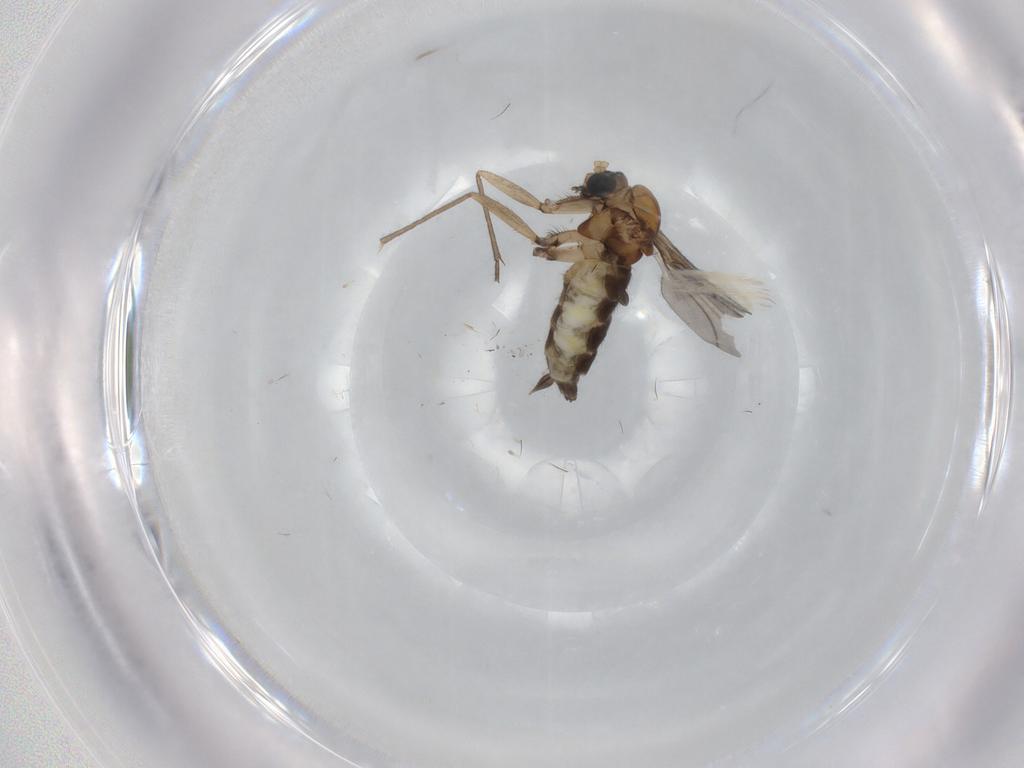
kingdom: Animalia
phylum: Arthropoda
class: Insecta
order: Diptera
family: Sciaridae
